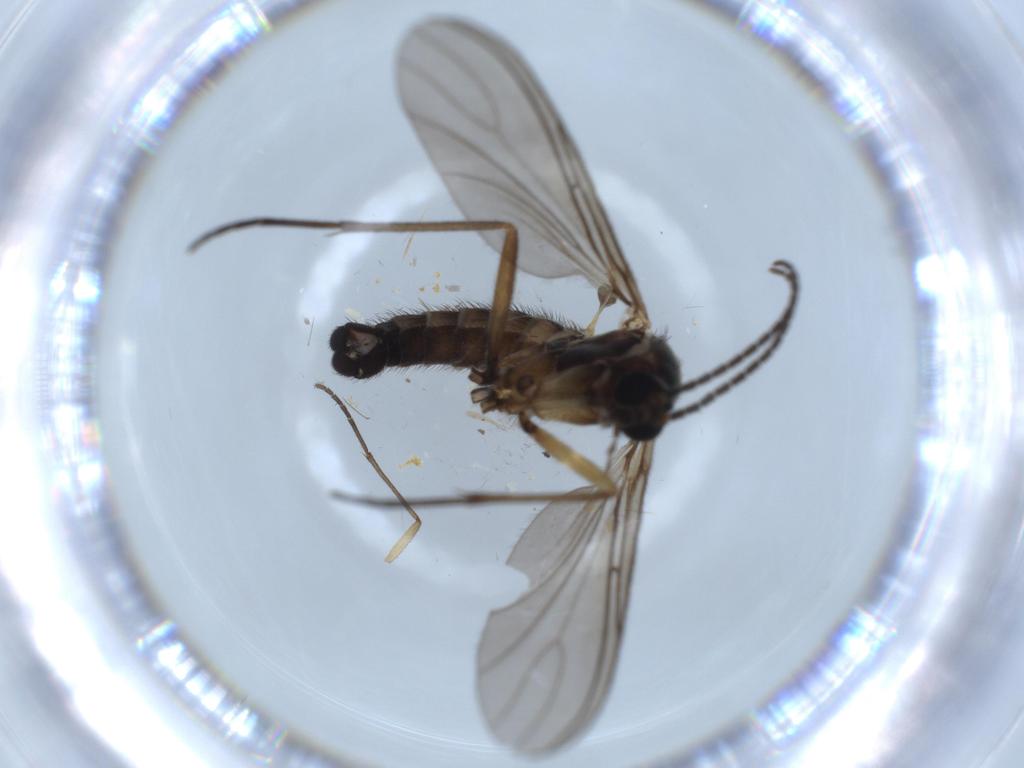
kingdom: Animalia
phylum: Arthropoda
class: Insecta
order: Diptera
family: Sciaridae
